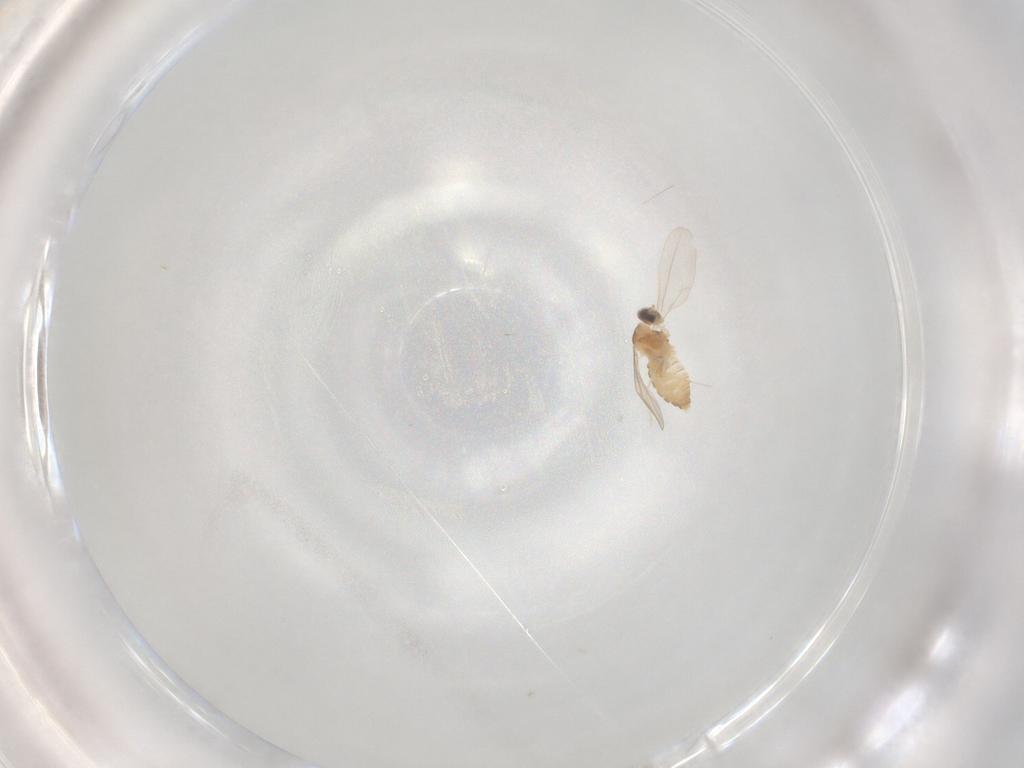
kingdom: Animalia
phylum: Arthropoda
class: Insecta
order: Diptera
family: Cecidomyiidae
